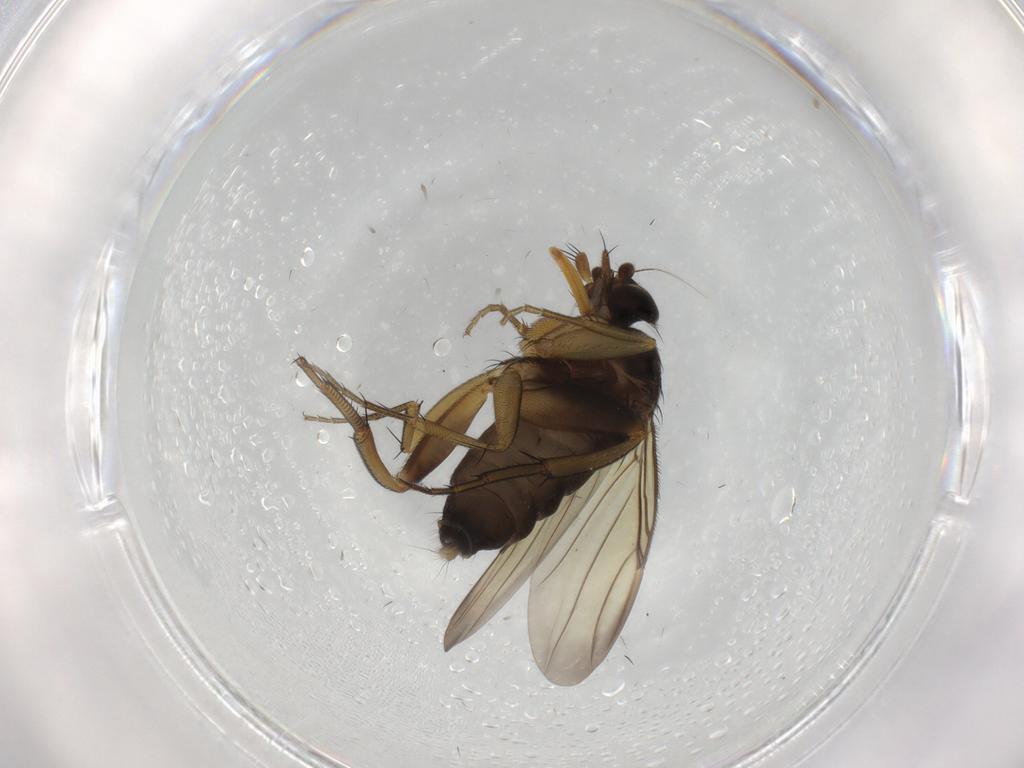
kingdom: Animalia
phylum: Arthropoda
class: Insecta
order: Diptera
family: Phoridae
